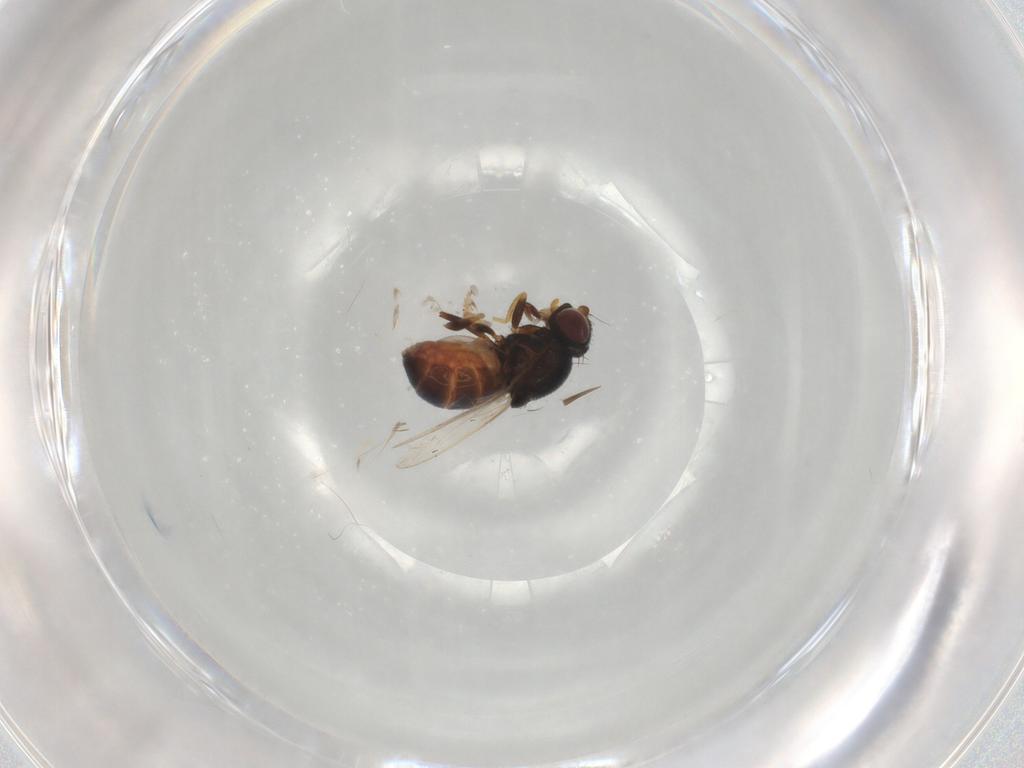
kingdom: Animalia
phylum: Arthropoda
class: Insecta
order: Diptera
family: Chloropidae
